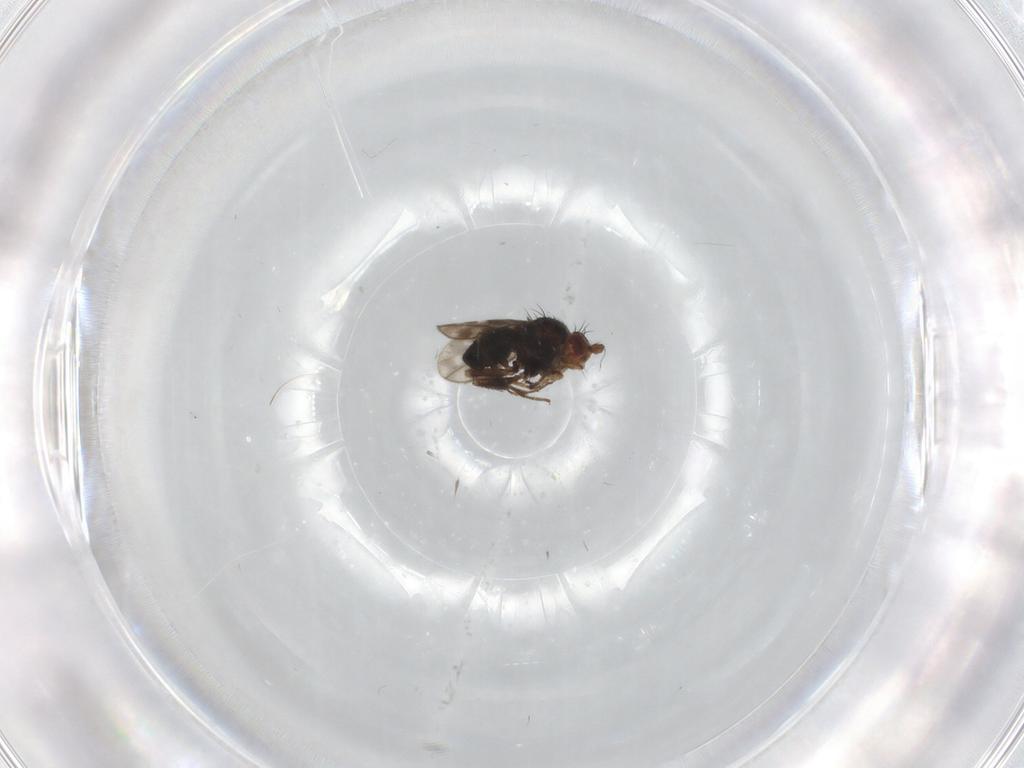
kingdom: Animalia
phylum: Arthropoda
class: Insecta
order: Diptera
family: Sphaeroceridae
